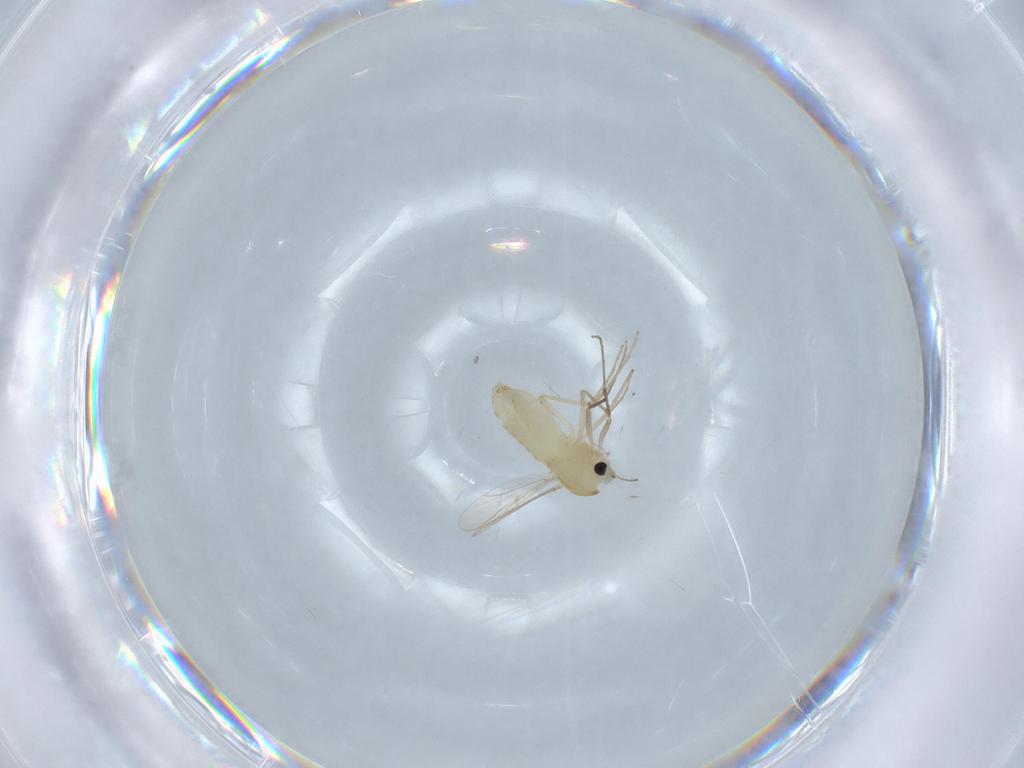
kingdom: Animalia
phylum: Arthropoda
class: Insecta
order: Diptera
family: Chironomidae
